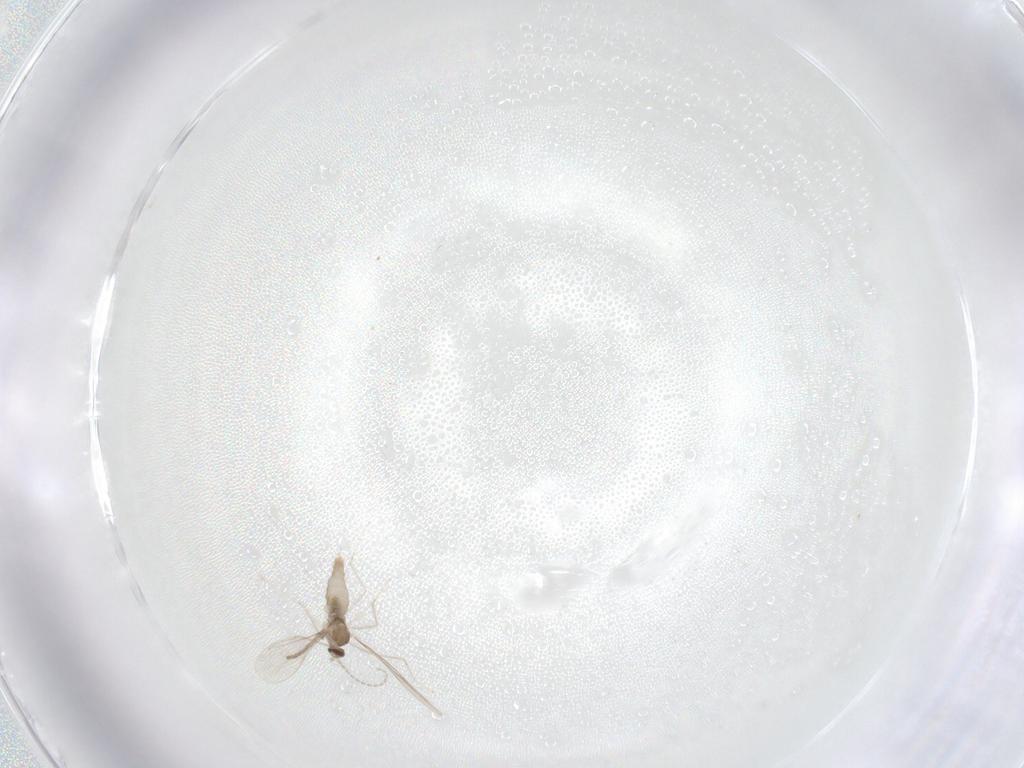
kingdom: Animalia
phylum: Arthropoda
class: Insecta
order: Diptera
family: Cecidomyiidae
